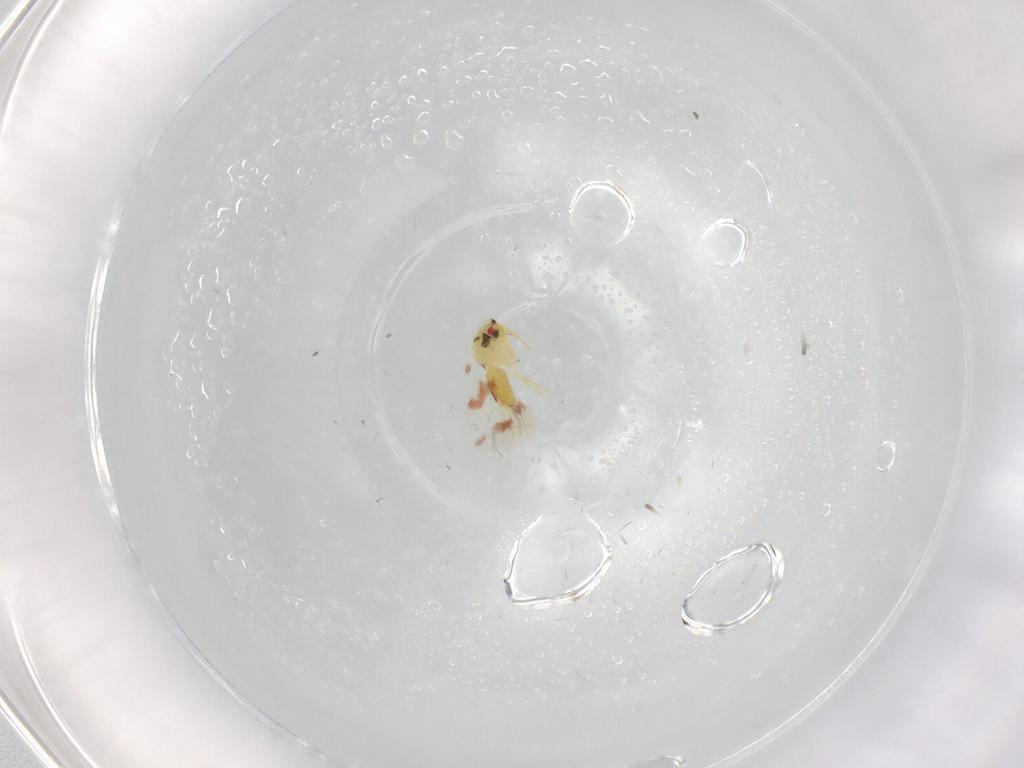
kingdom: Animalia
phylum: Arthropoda
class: Insecta
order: Hemiptera
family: Aleyrodidae
